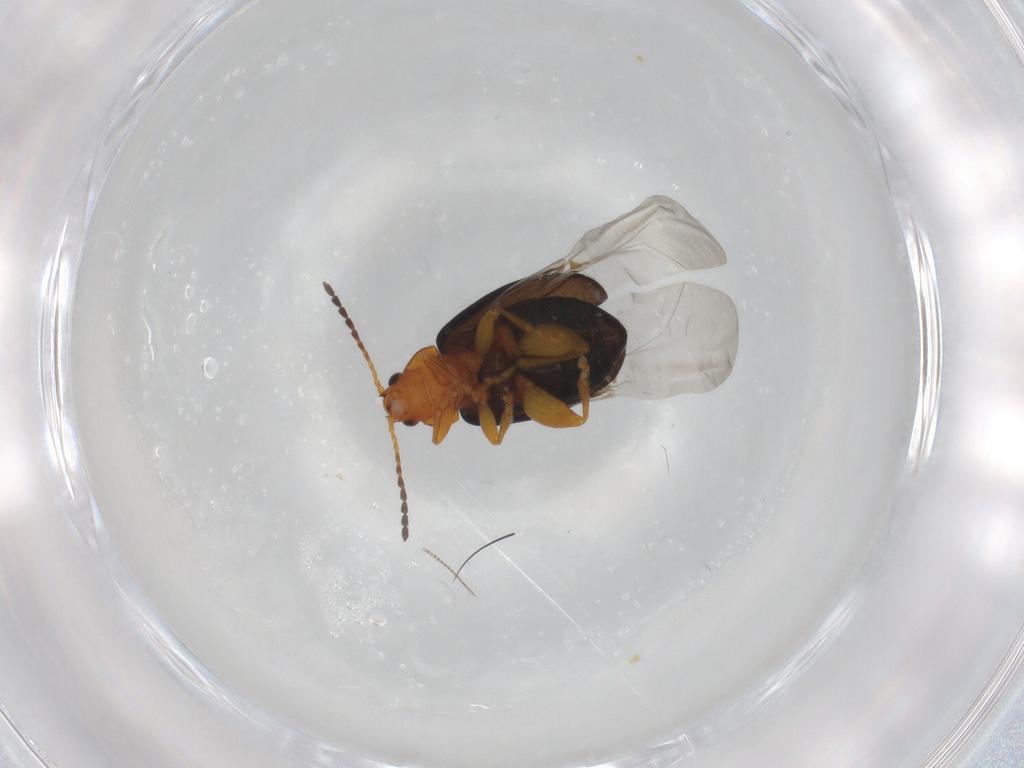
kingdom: Animalia
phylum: Arthropoda
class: Insecta
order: Coleoptera
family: Chrysomelidae
